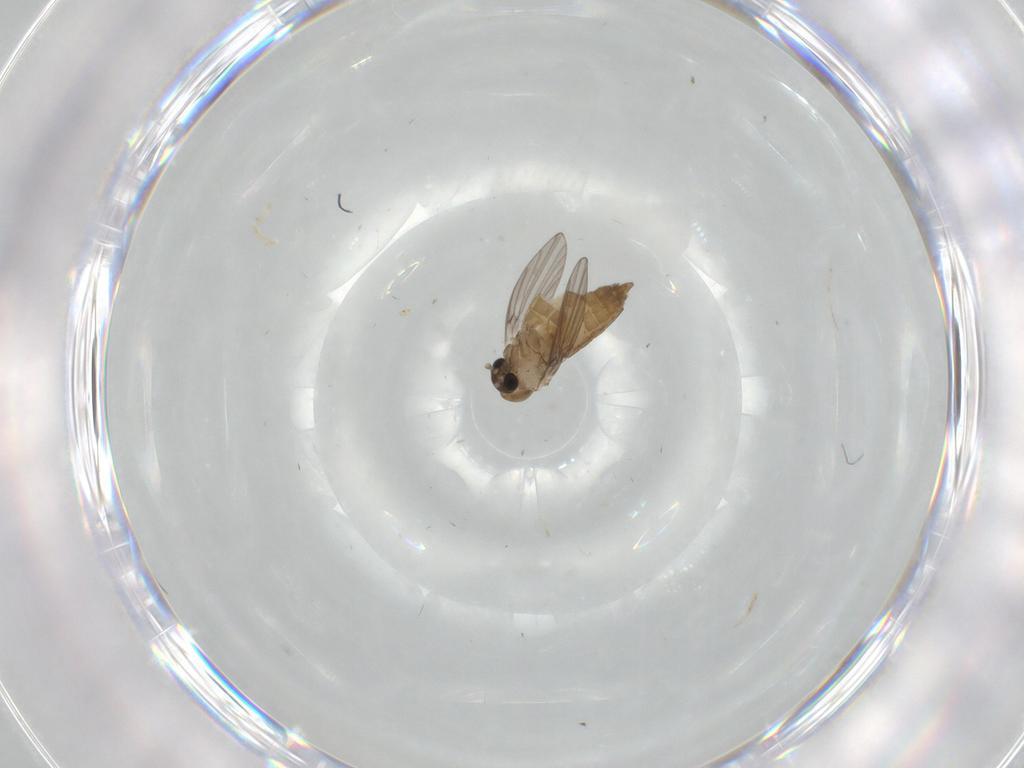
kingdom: Animalia
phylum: Arthropoda
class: Insecta
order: Diptera
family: Psychodidae
